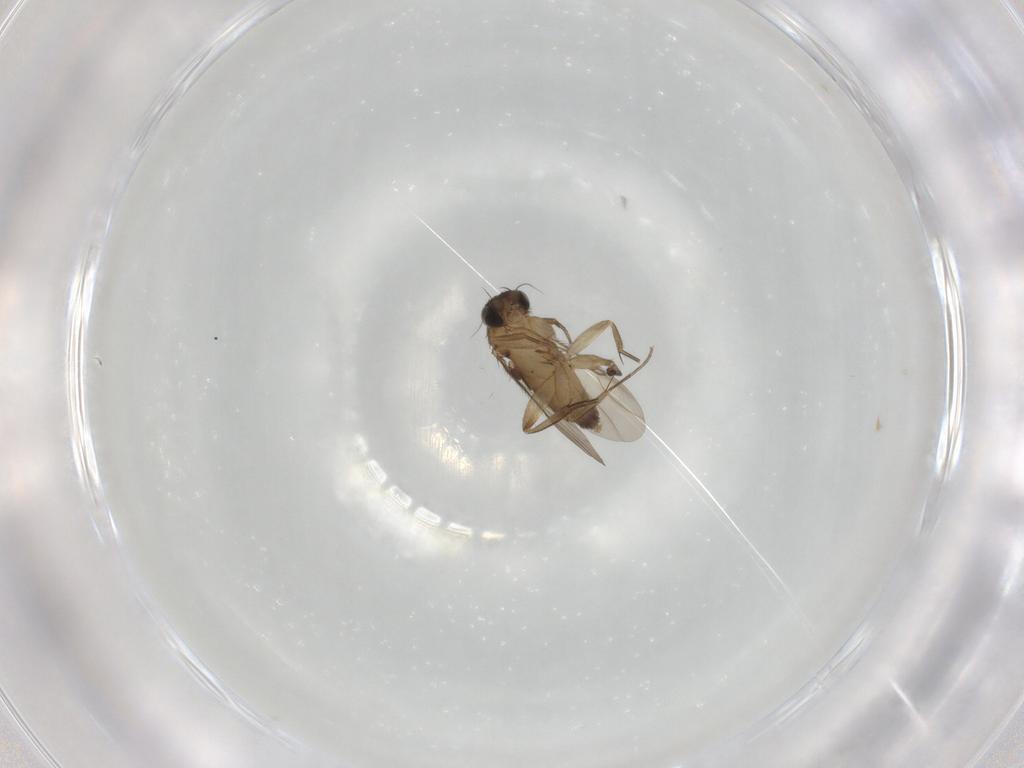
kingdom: Animalia
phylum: Arthropoda
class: Insecta
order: Diptera
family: Phoridae
